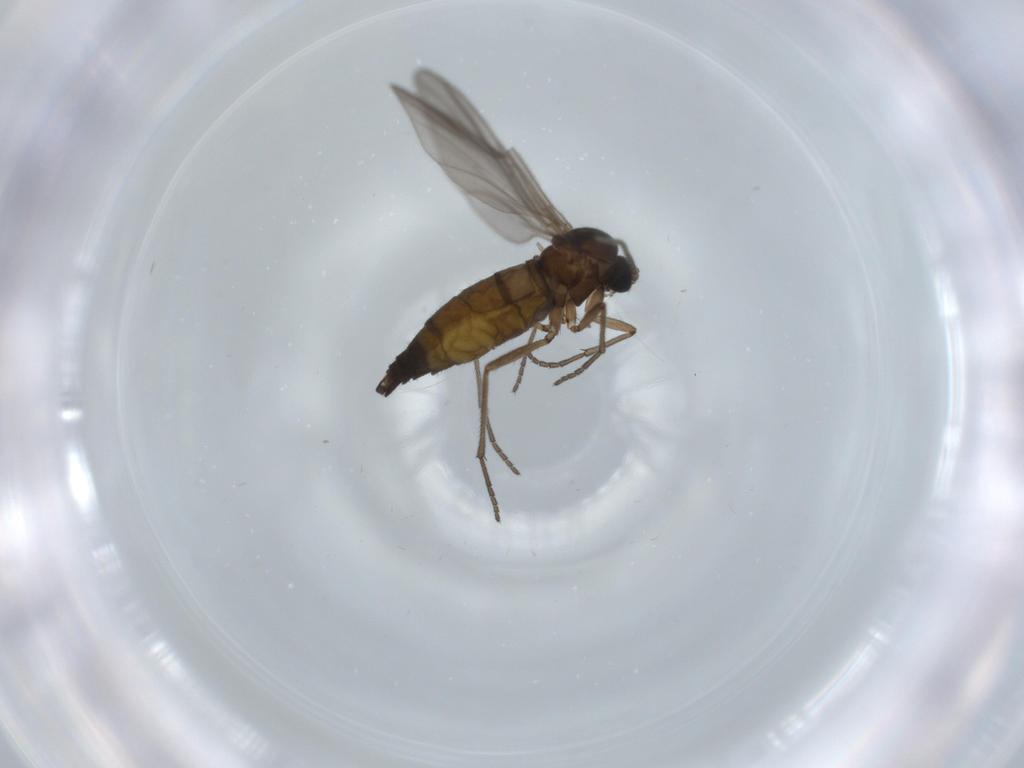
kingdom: Animalia
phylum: Arthropoda
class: Insecta
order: Diptera
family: Sciaridae
